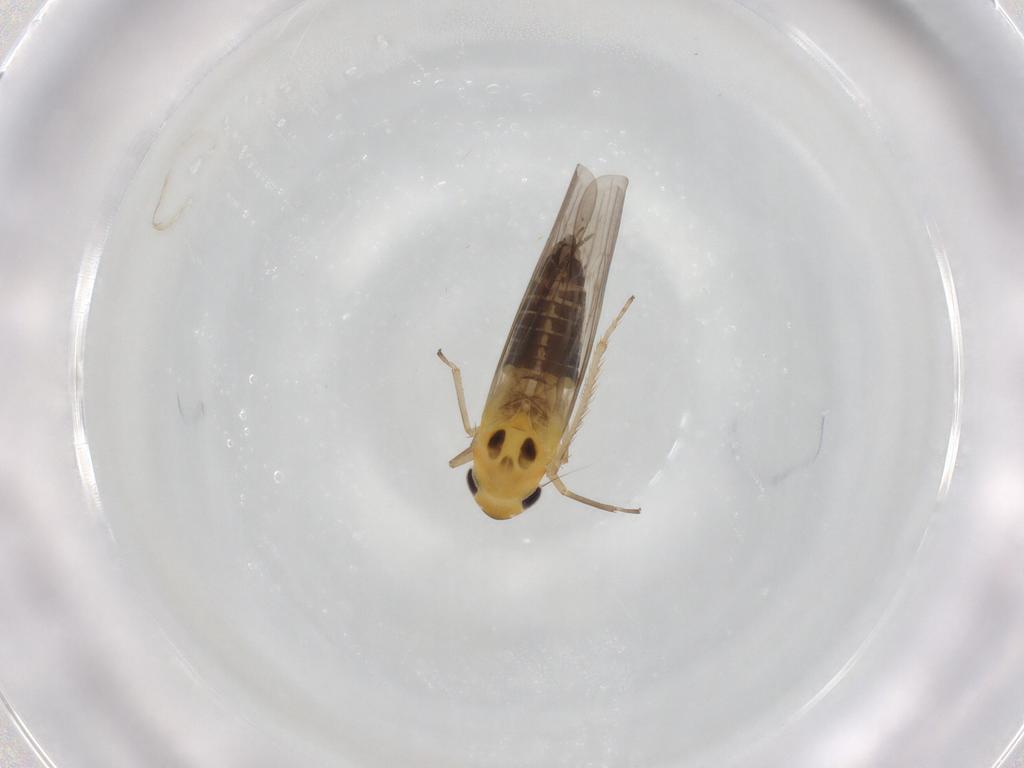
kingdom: Animalia
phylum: Arthropoda
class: Insecta
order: Hemiptera
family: Cicadellidae
